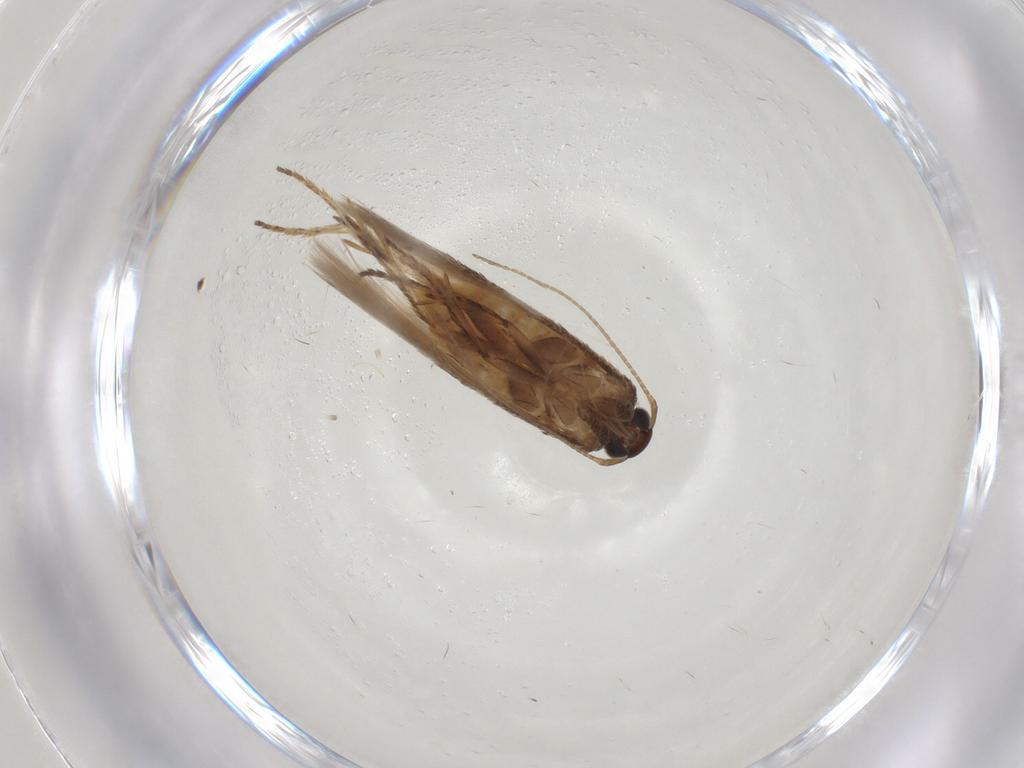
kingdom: Animalia
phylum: Arthropoda
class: Insecta
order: Lepidoptera
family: Gelechiidae
